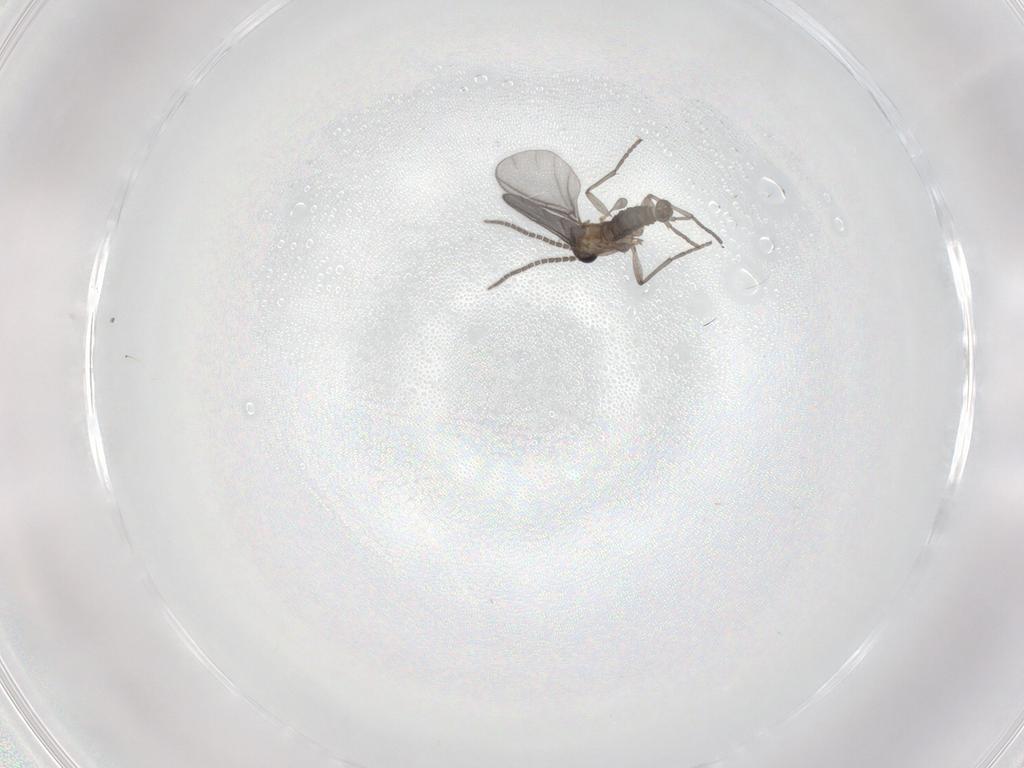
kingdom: Animalia
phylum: Arthropoda
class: Insecta
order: Diptera
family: Sciaridae
